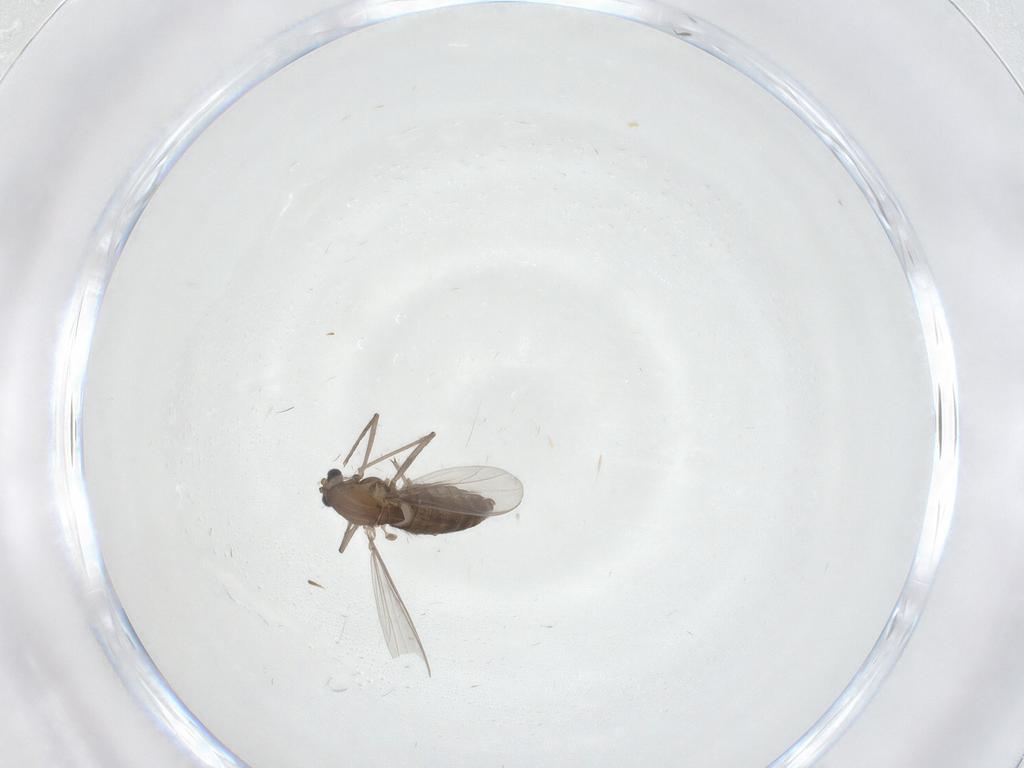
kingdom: Animalia
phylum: Arthropoda
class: Insecta
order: Diptera
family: Chironomidae
